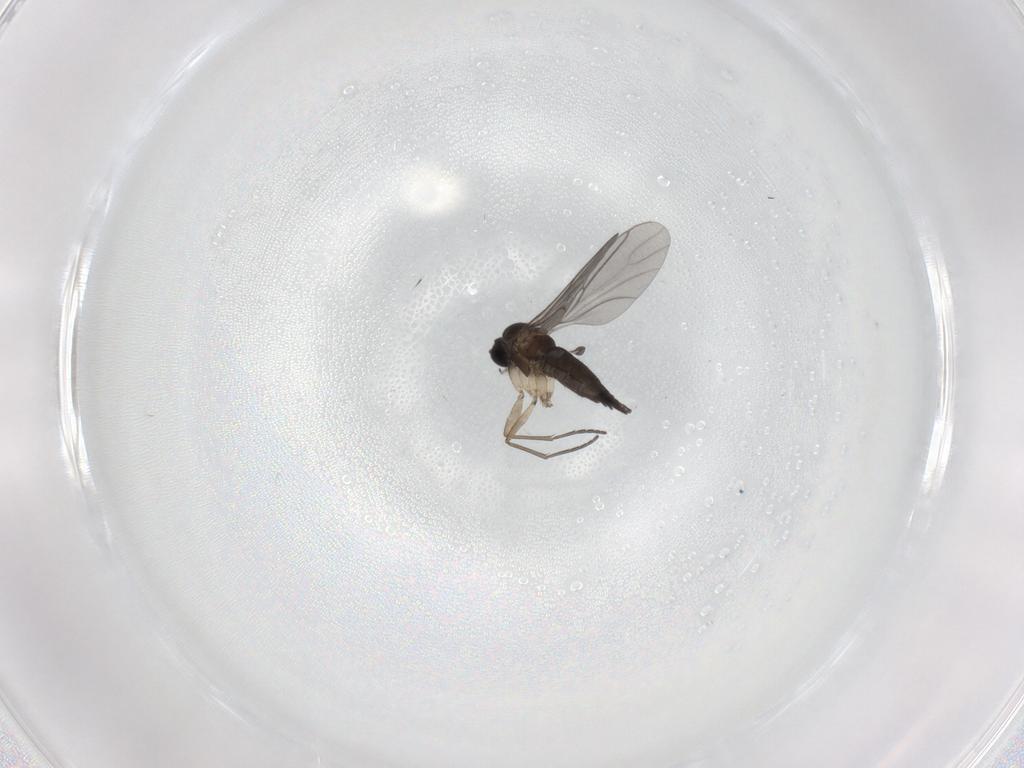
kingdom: Animalia
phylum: Arthropoda
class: Insecta
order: Diptera
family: Sciaridae
